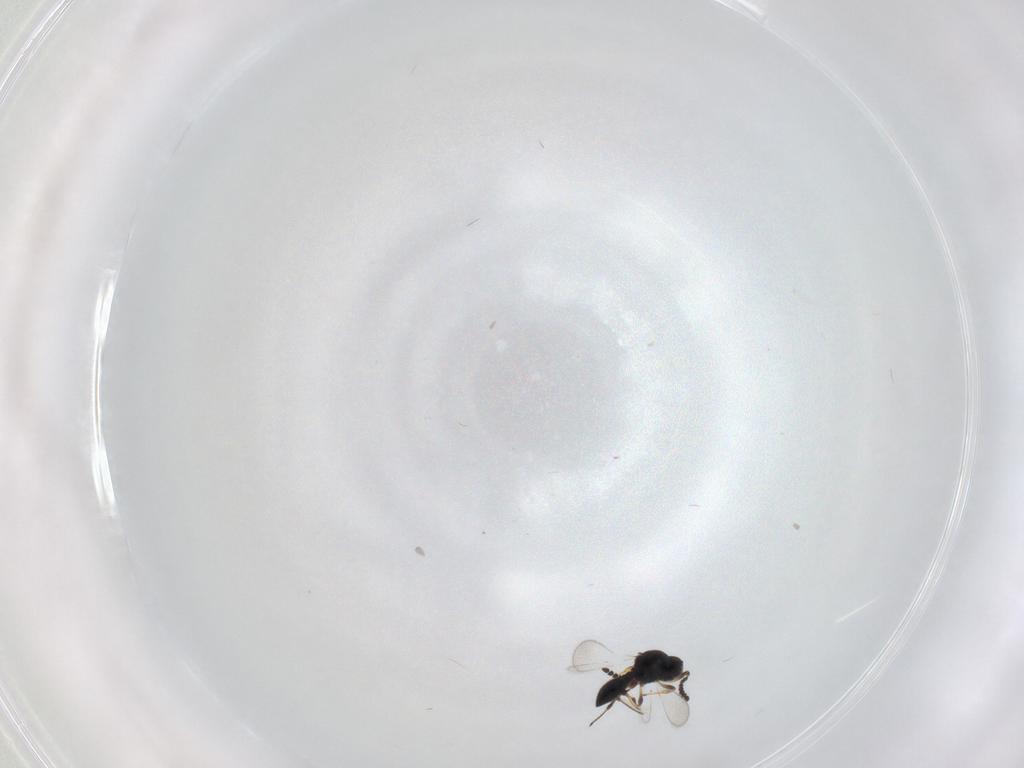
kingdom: Animalia
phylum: Arthropoda
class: Insecta
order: Hymenoptera
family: Platygastridae
